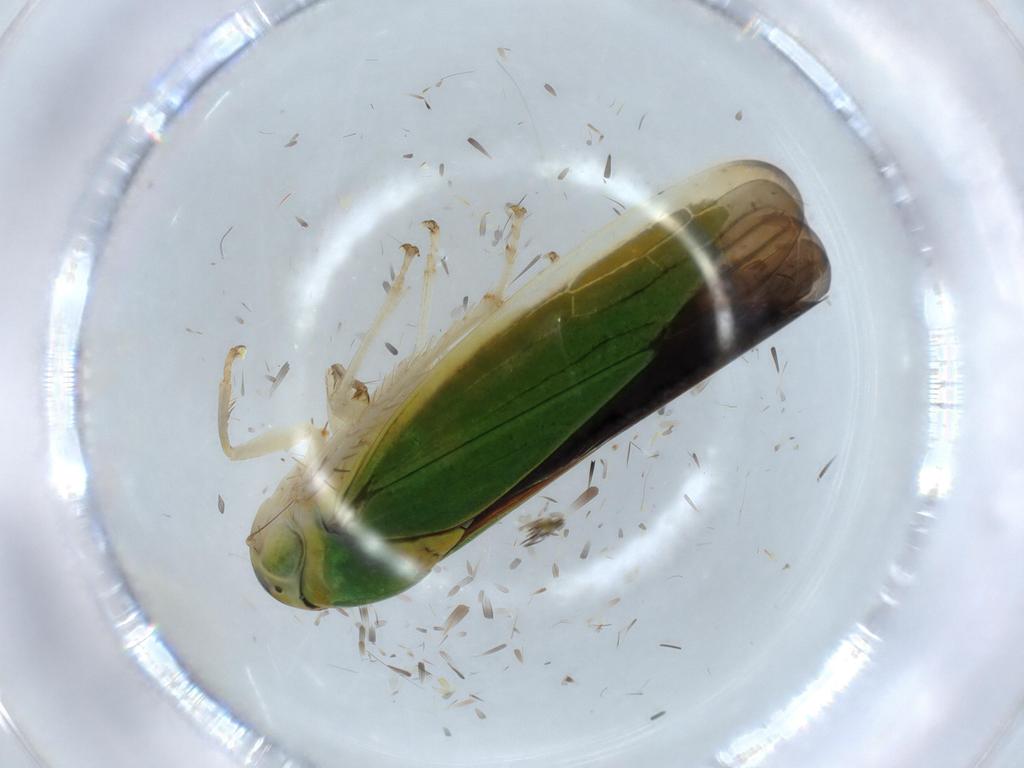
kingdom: Animalia
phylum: Arthropoda
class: Insecta
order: Hemiptera
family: Cicadellidae
